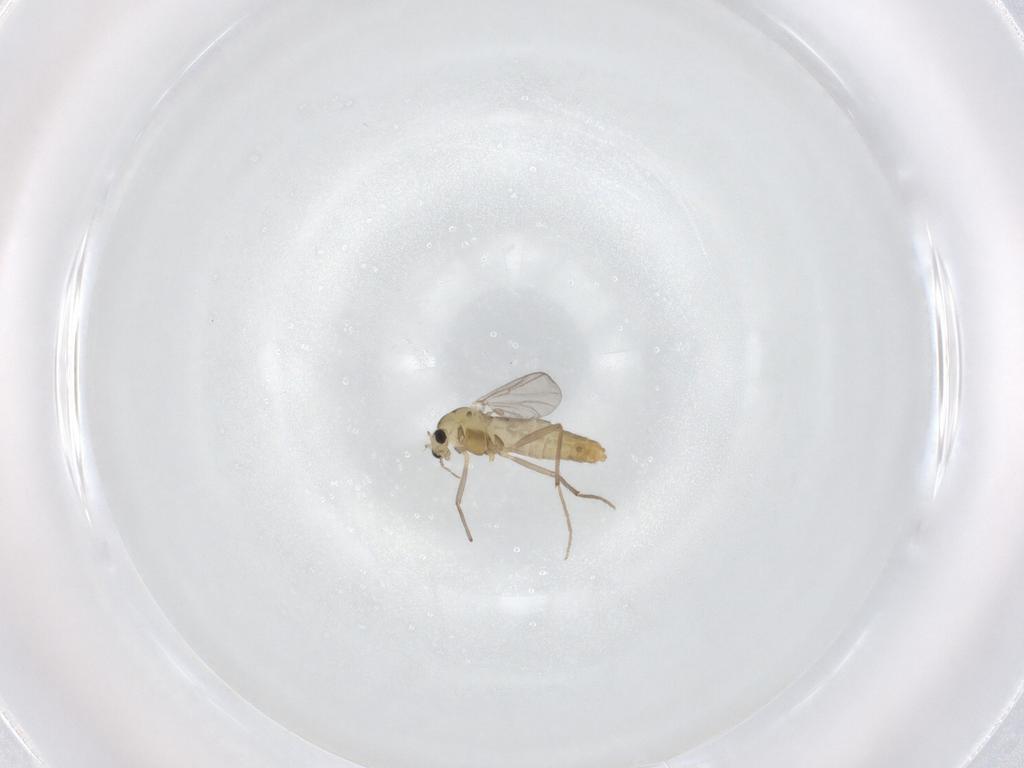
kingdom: Animalia
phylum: Arthropoda
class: Insecta
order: Diptera
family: Chironomidae
